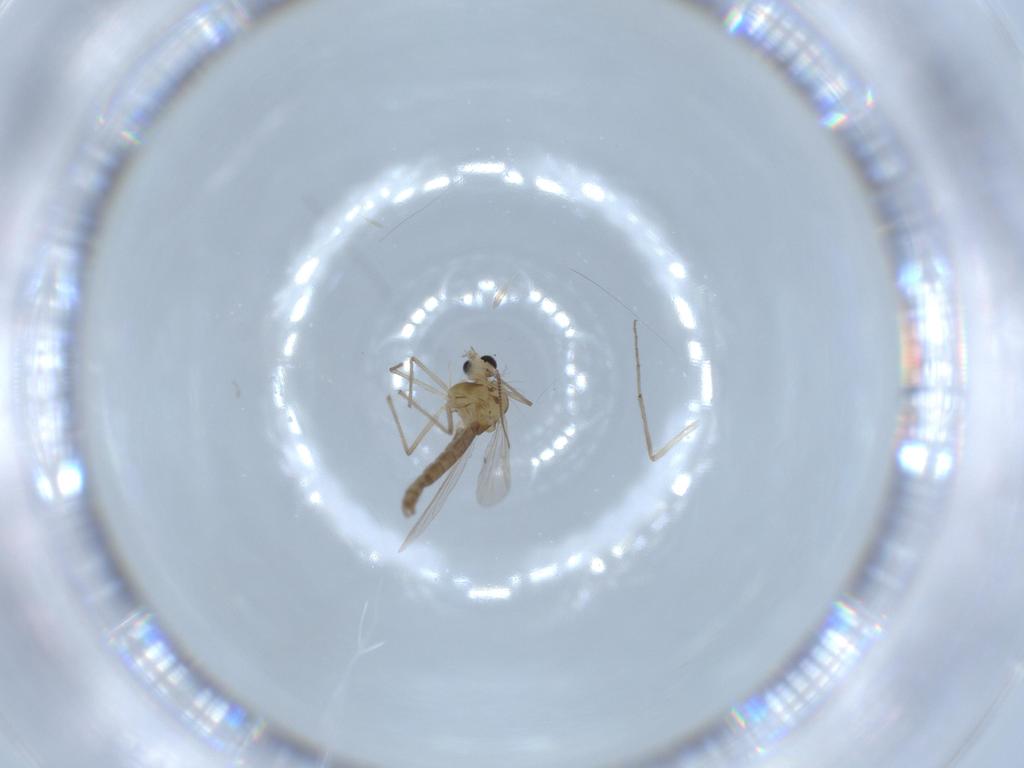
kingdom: Animalia
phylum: Arthropoda
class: Insecta
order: Diptera
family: Chironomidae
